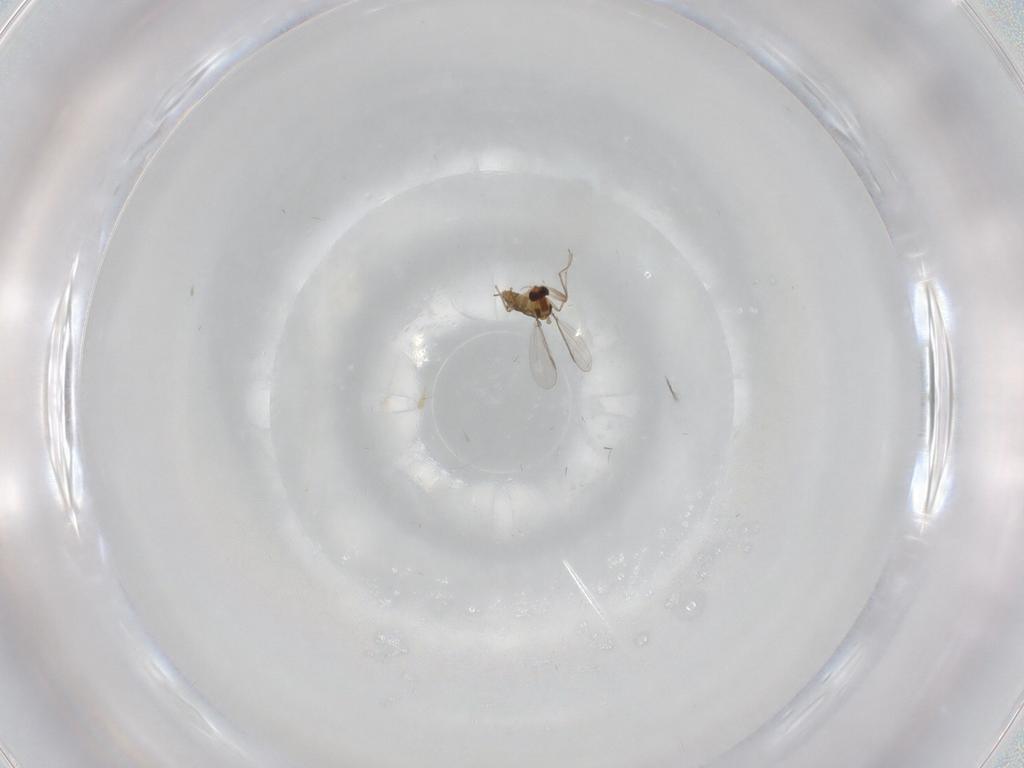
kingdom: Animalia
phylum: Arthropoda
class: Insecta
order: Diptera
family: Chironomidae
